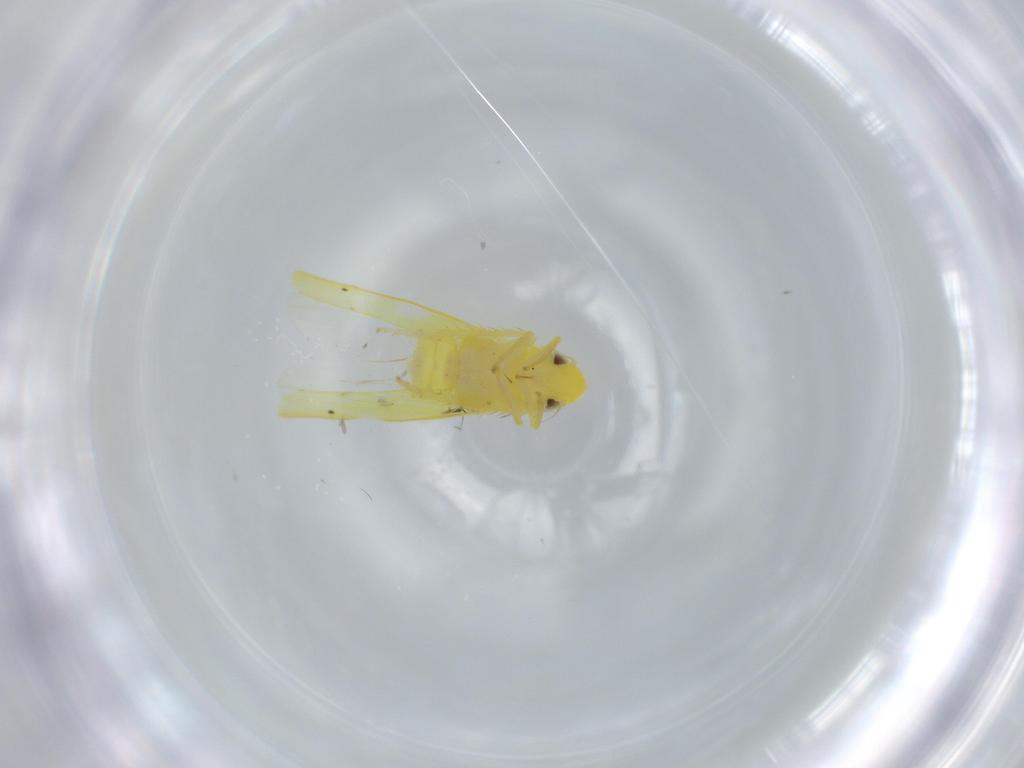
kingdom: Animalia
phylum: Arthropoda
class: Insecta
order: Hemiptera
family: Cicadellidae
